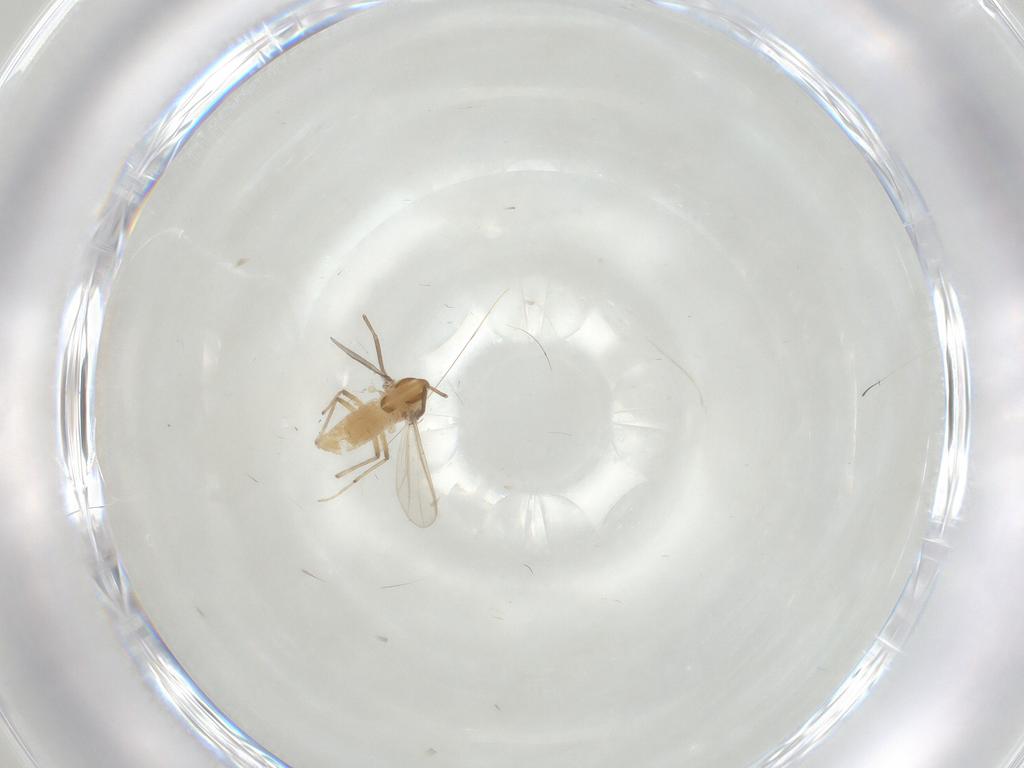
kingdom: Animalia
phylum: Arthropoda
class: Insecta
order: Diptera
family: Chironomidae
